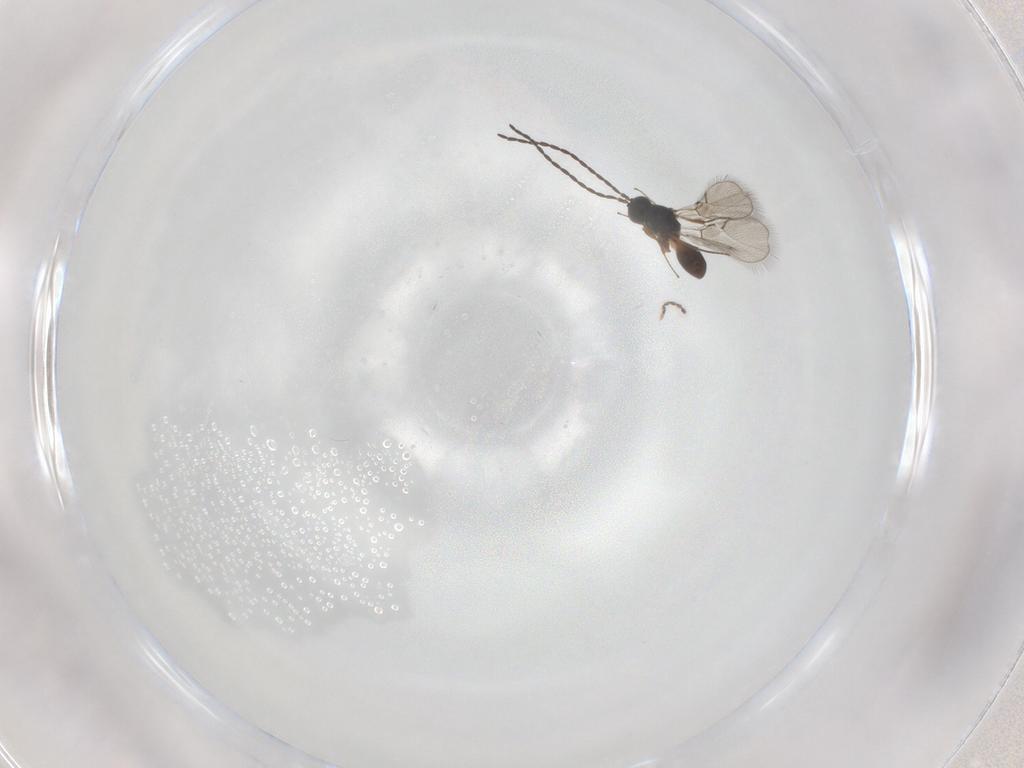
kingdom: Animalia
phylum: Arthropoda
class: Insecta
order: Hymenoptera
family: Figitidae
